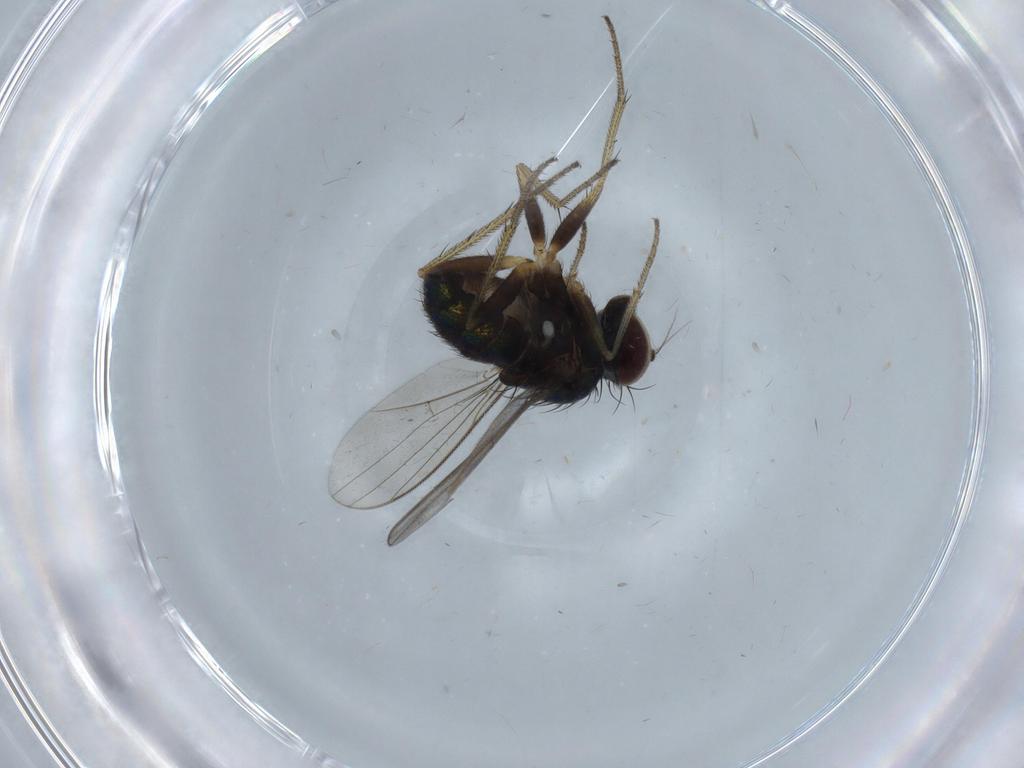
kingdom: Animalia
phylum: Arthropoda
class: Insecta
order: Diptera
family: Dolichopodidae
